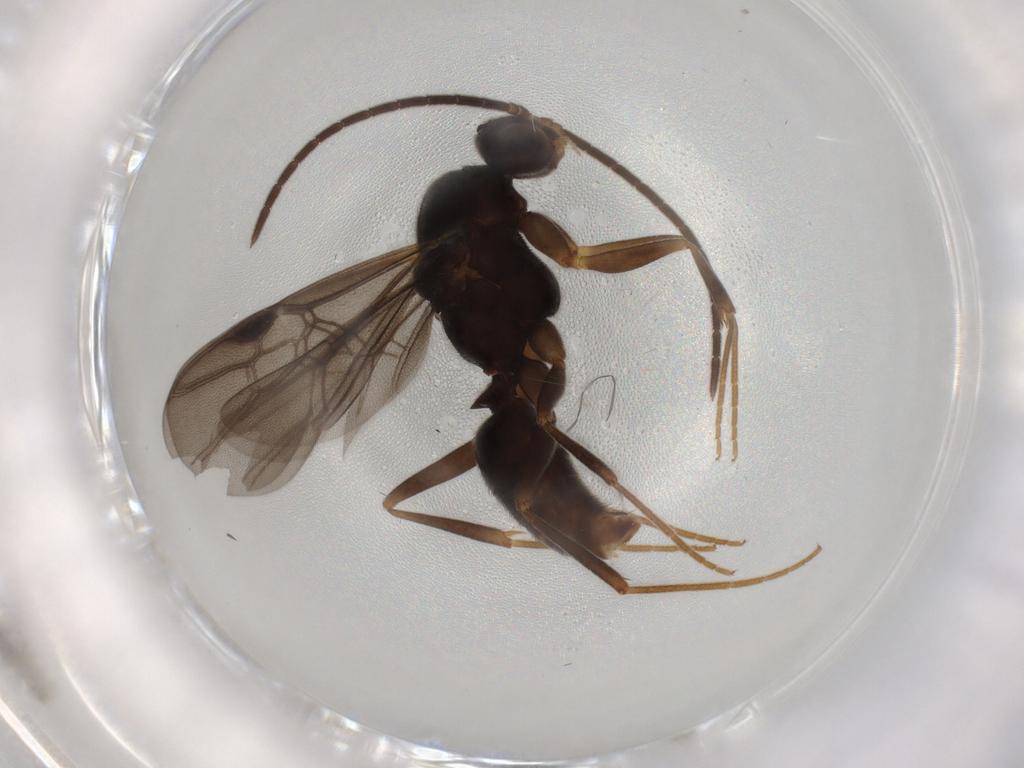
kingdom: Animalia
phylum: Arthropoda
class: Insecta
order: Hymenoptera
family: Formicidae
